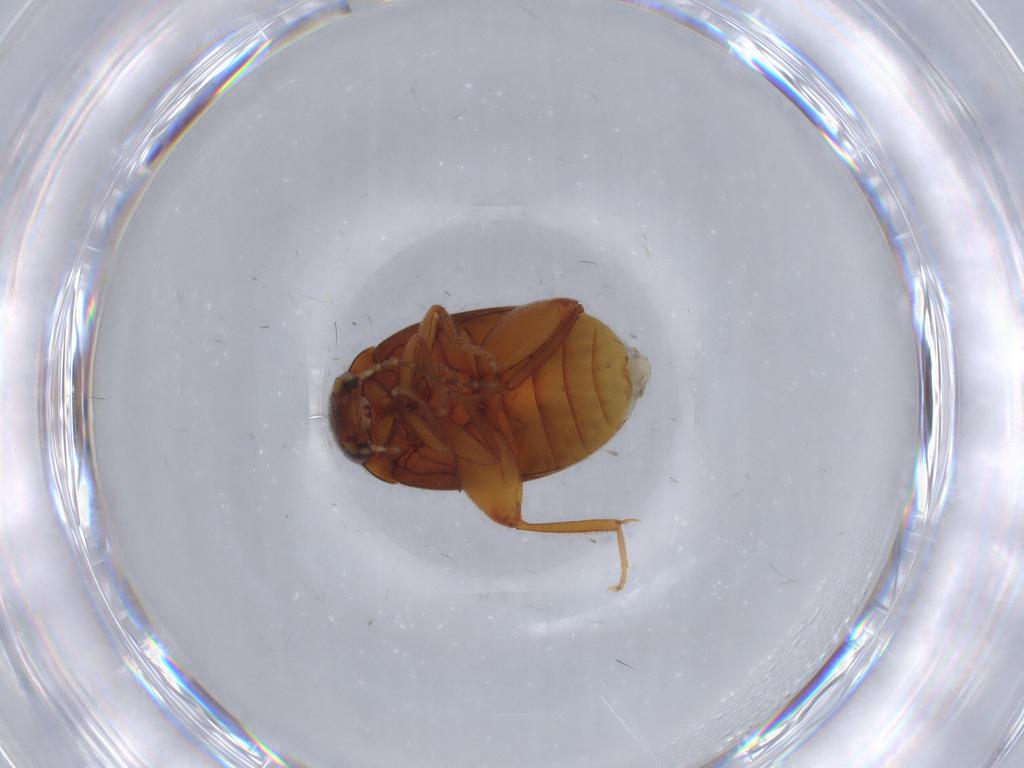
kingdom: Animalia
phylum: Arthropoda
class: Insecta
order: Coleoptera
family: Scirtidae
